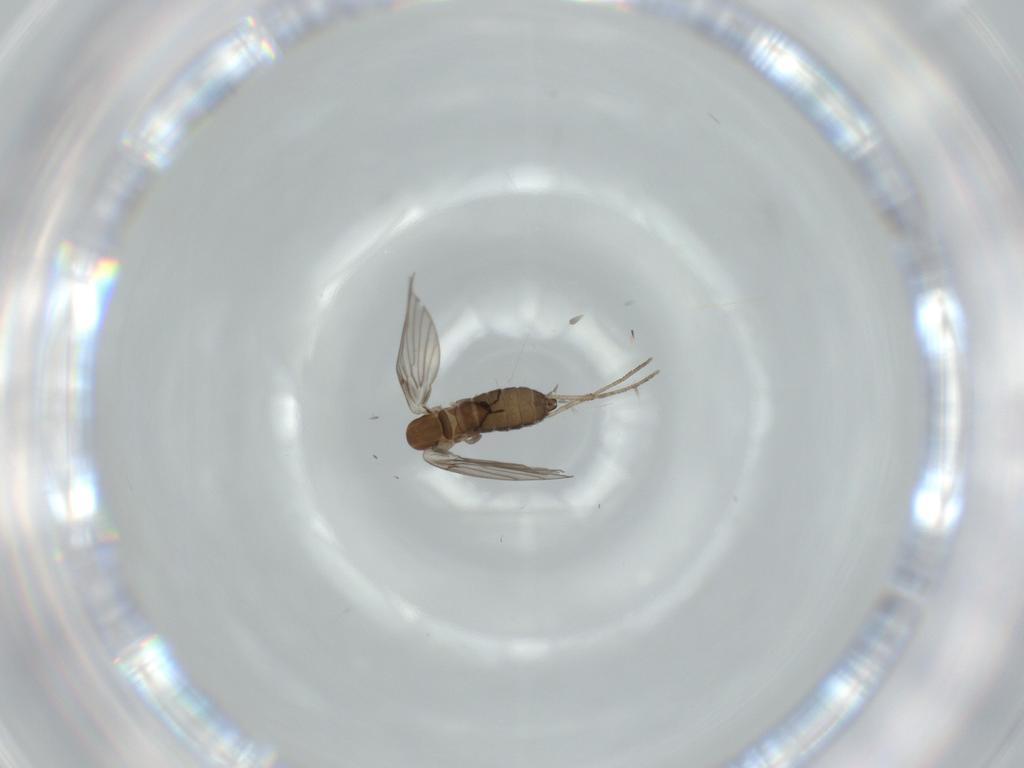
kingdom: Animalia
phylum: Arthropoda
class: Insecta
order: Diptera
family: Psychodidae
